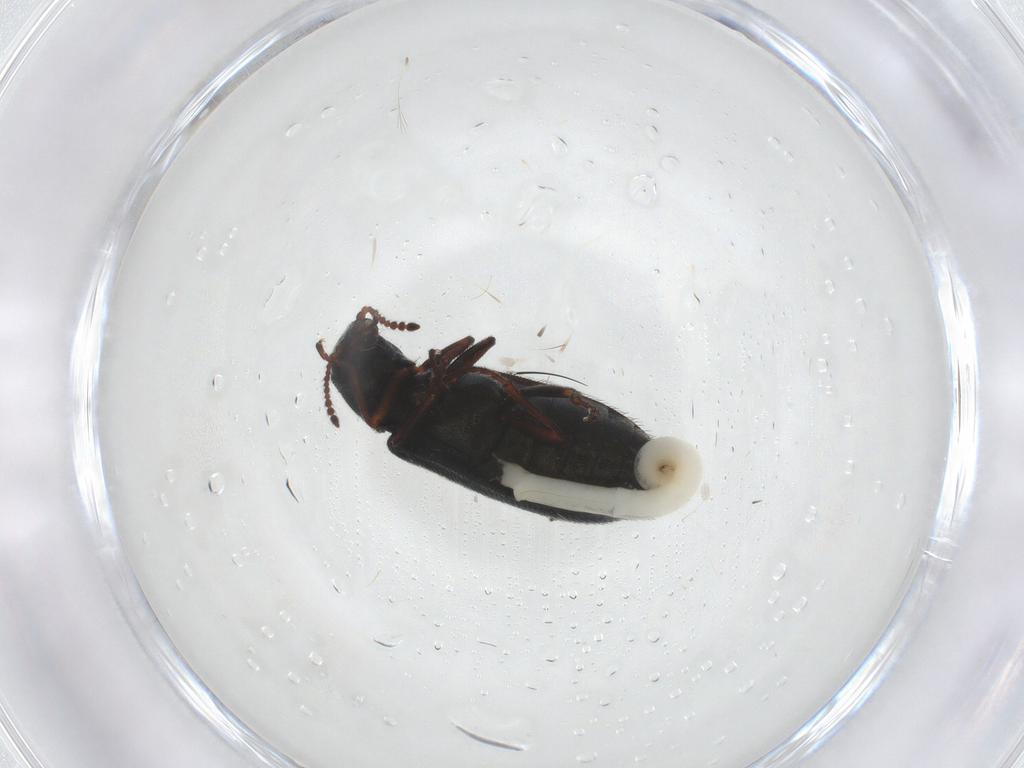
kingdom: Animalia
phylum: Arthropoda
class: Insecta
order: Coleoptera
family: Melyridae
